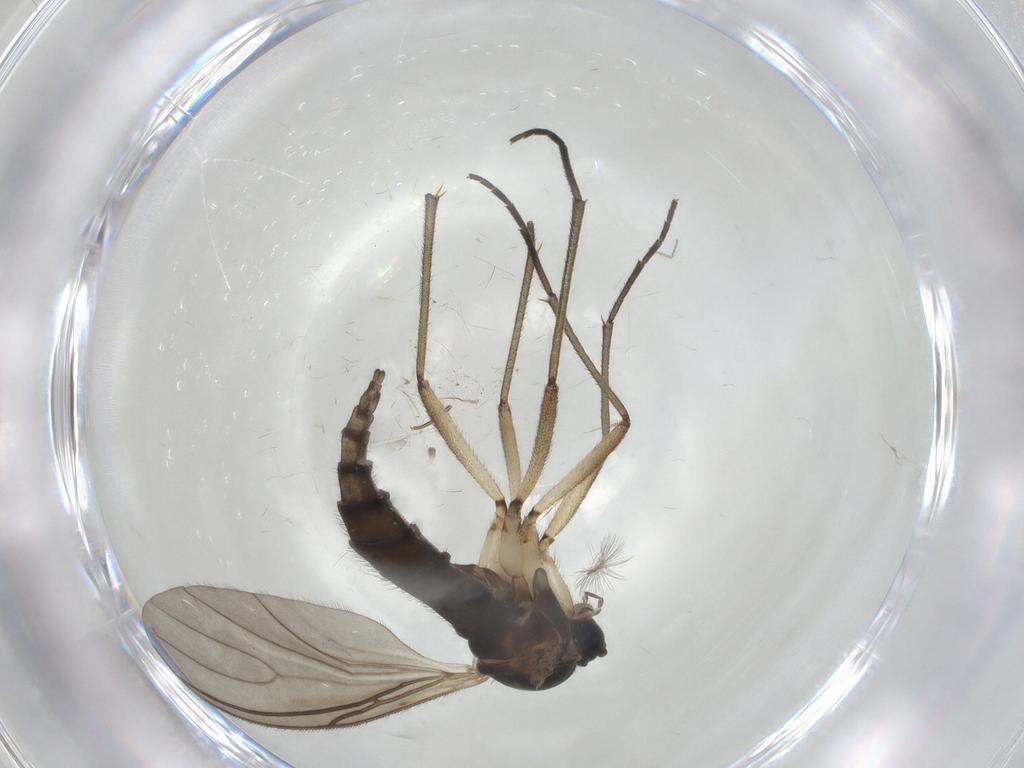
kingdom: Animalia
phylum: Arthropoda
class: Insecta
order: Diptera
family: Sciaridae
